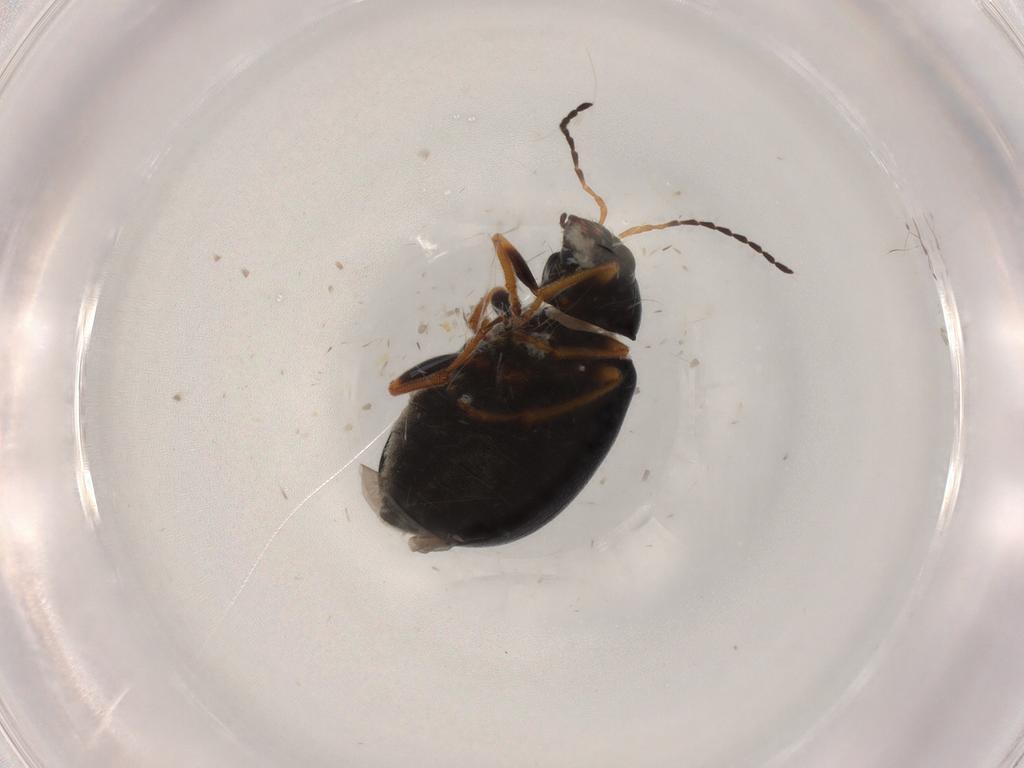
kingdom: Animalia
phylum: Arthropoda
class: Insecta
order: Coleoptera
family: Chrysomelidae
